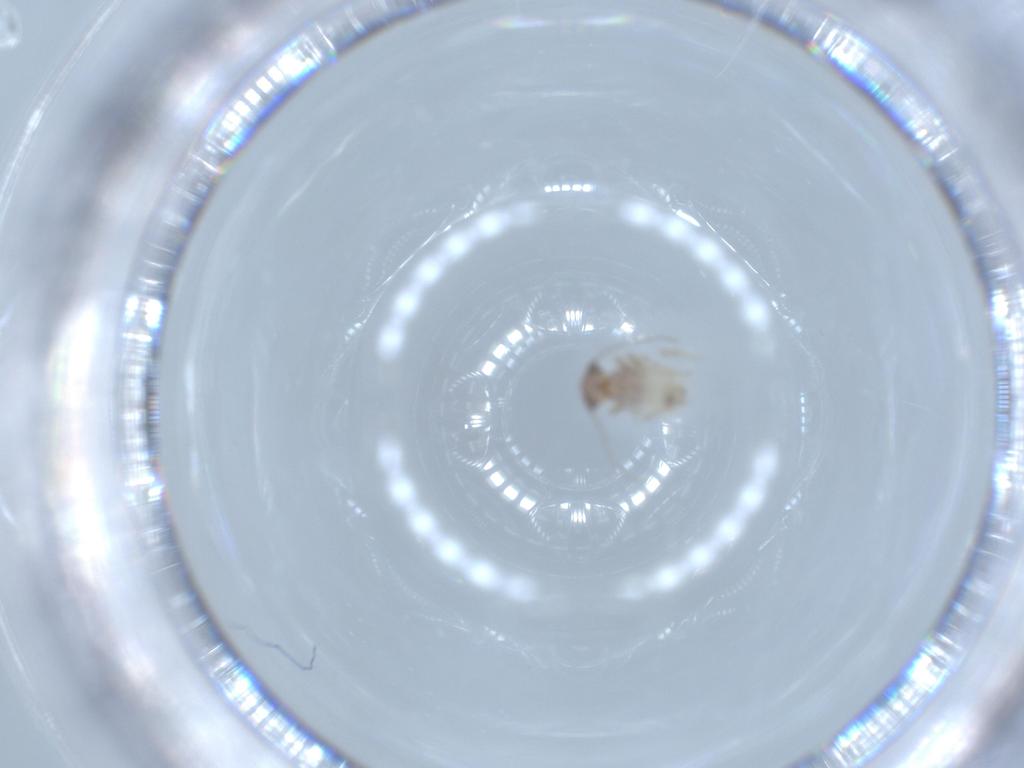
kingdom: Animalia
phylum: Arthropoda
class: Insecta
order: Psocodea
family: Lepidopsocidae
